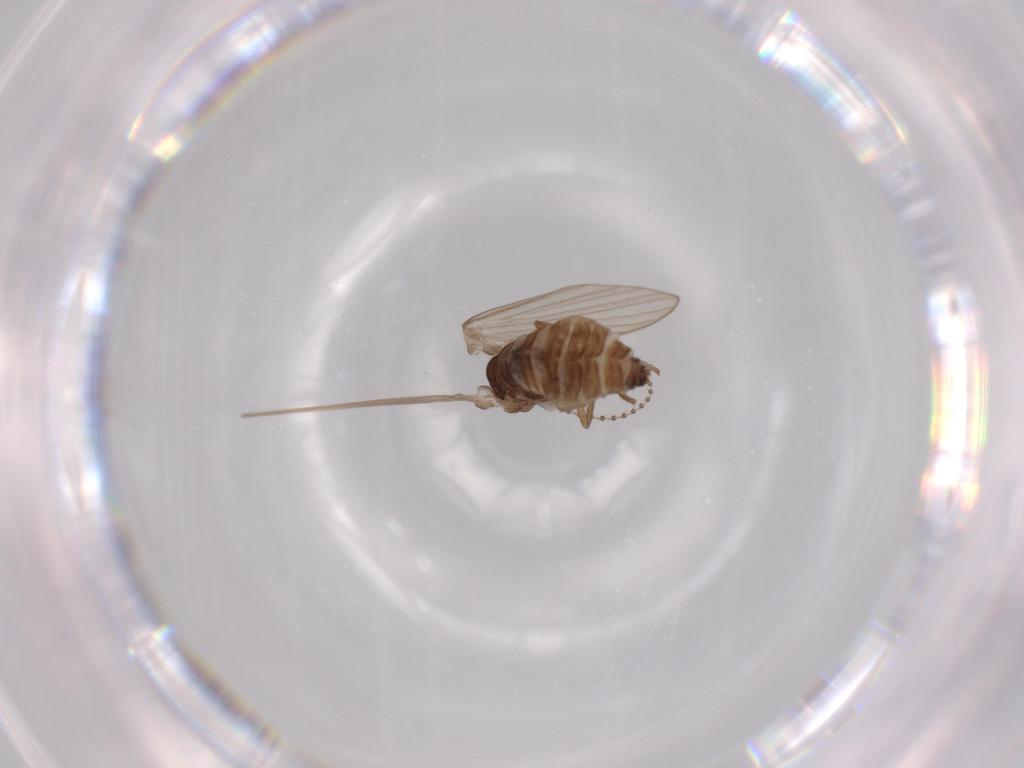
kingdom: Animalia
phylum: Arthropoda
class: Insecta
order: Diptera
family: Psychodidae
